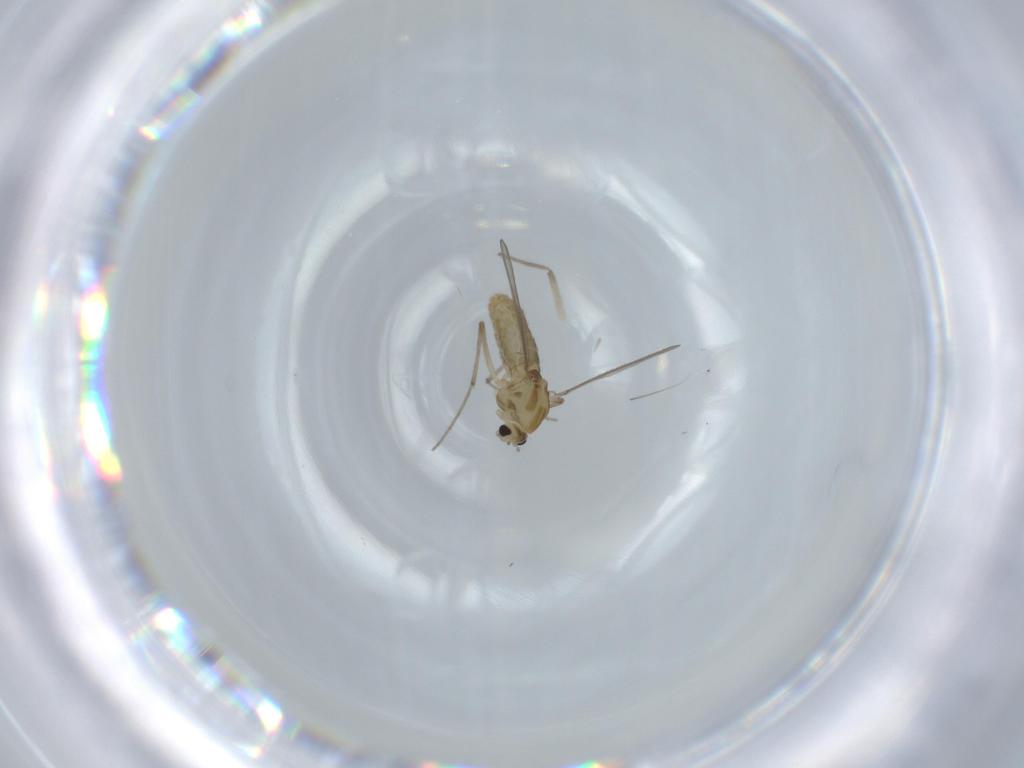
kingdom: Animalia
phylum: Arthropoda
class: Insecta
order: Diptera
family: Chironomidae
